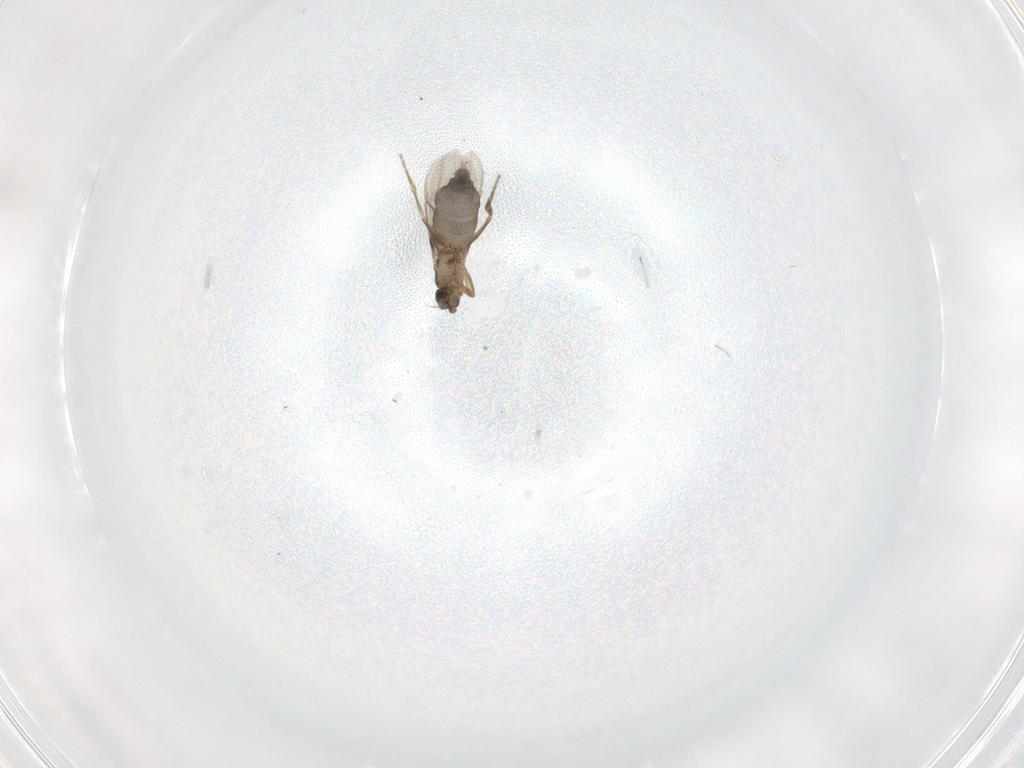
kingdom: Animalia
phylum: Arthropoda
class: Insecta
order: Diptera
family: Phoridae
